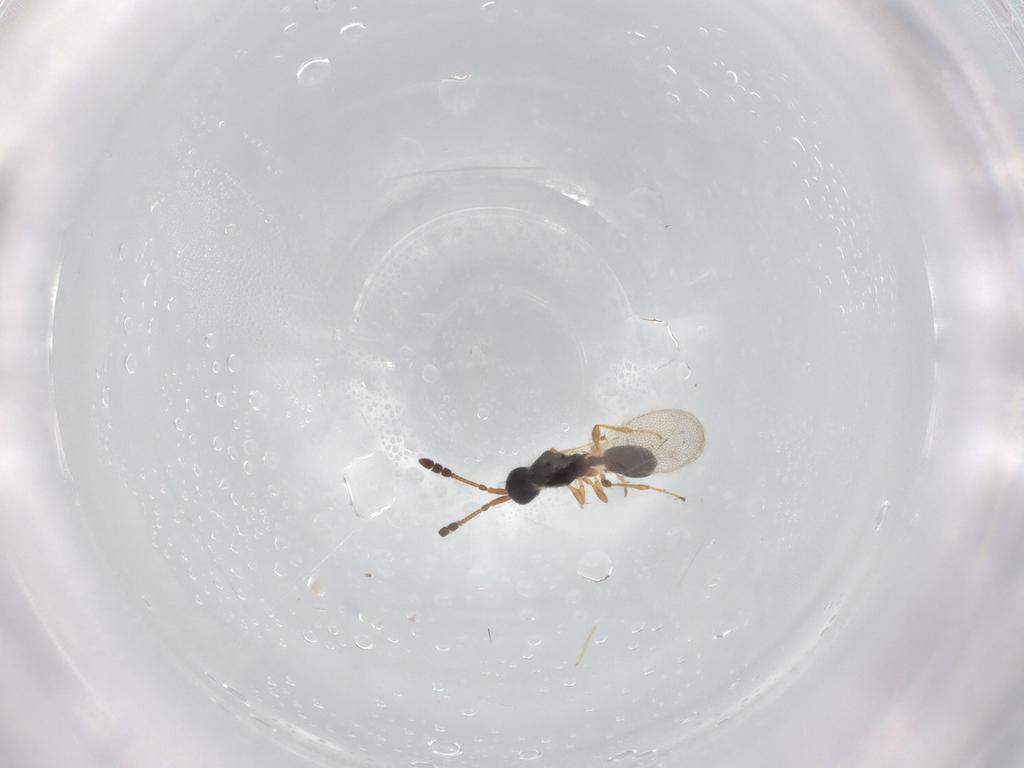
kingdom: Animalia
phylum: Arthropoda
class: Insecta
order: Hymenoptera
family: Diapriidae
